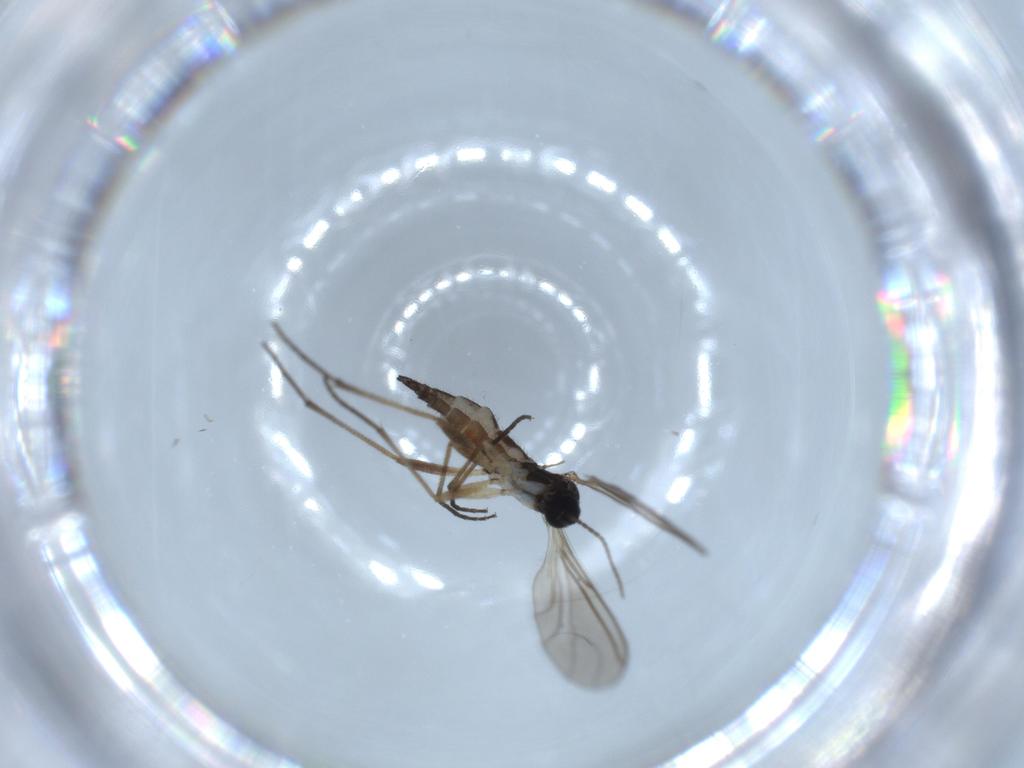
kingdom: Animalia
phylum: Arthropoda
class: Insecta
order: Diptera
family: Sciaridae
